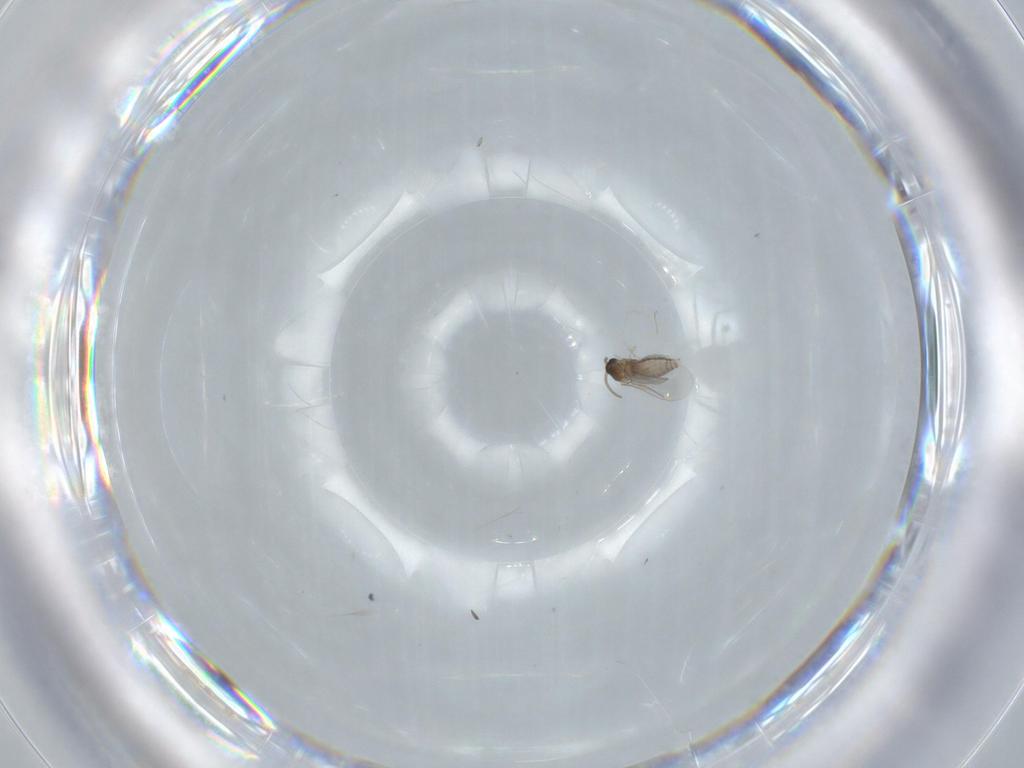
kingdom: Animalia
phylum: Arthropoda
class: Insecta
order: Diptera
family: Cecidomyiidae
